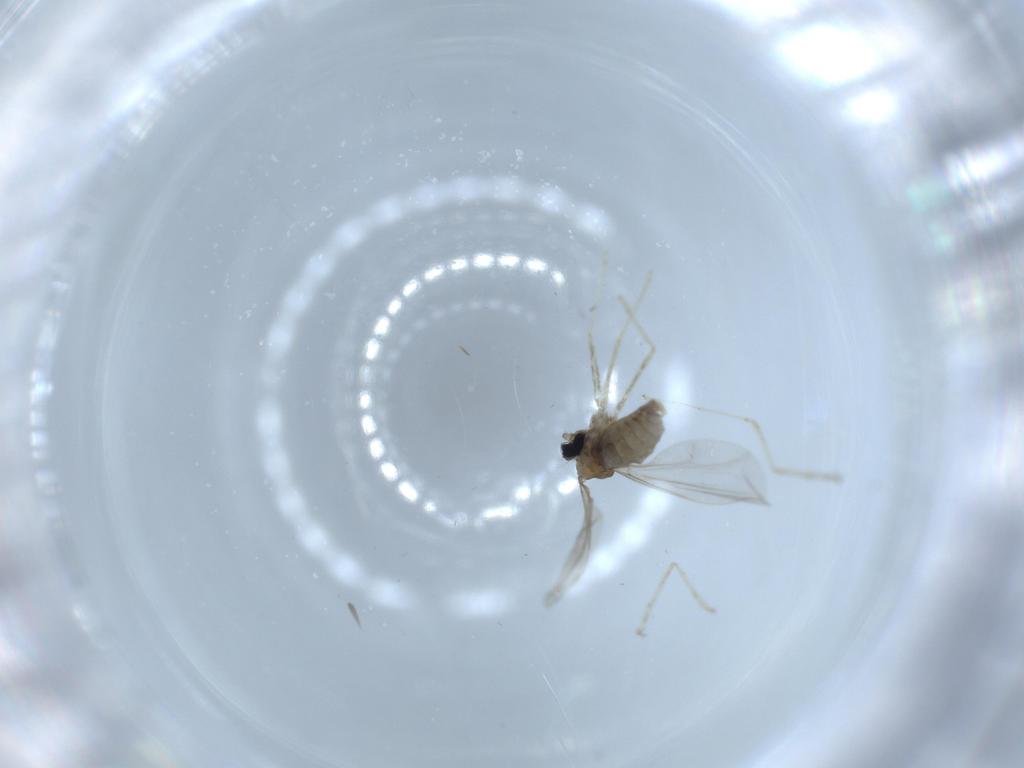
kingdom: Animalia
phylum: Arthropoda
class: Insecta
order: Diptera
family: Cecidomyiidae
